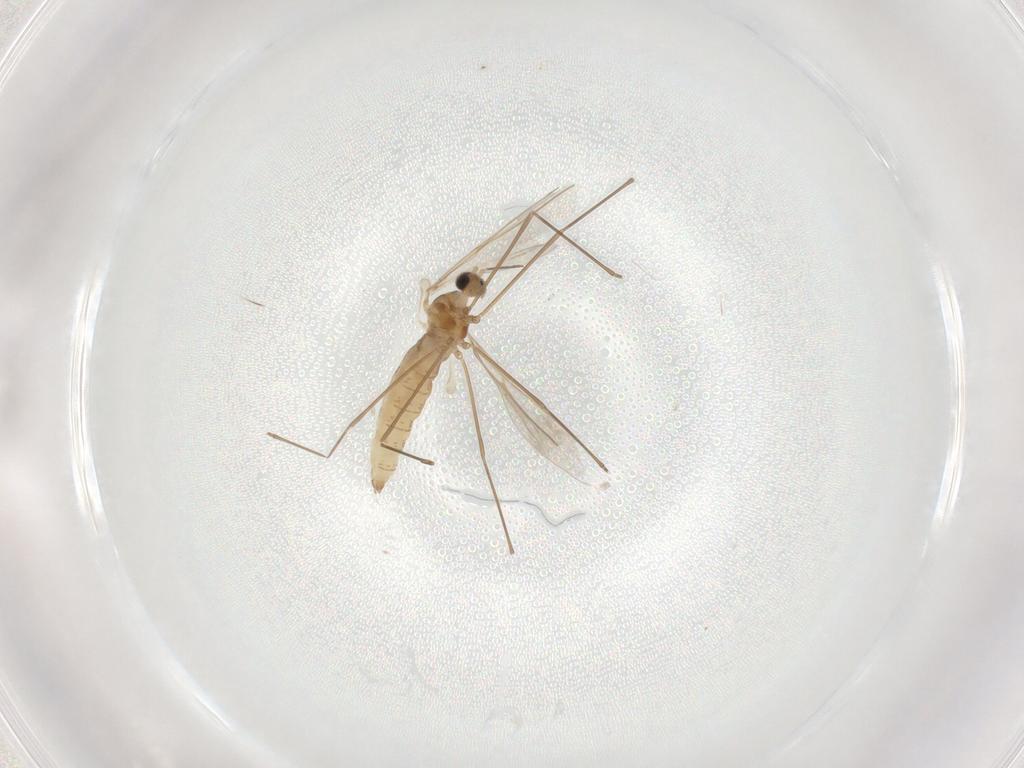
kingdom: Animalia
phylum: Arthropoda
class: Insecta
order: Diptera
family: Cecidomyiidae
